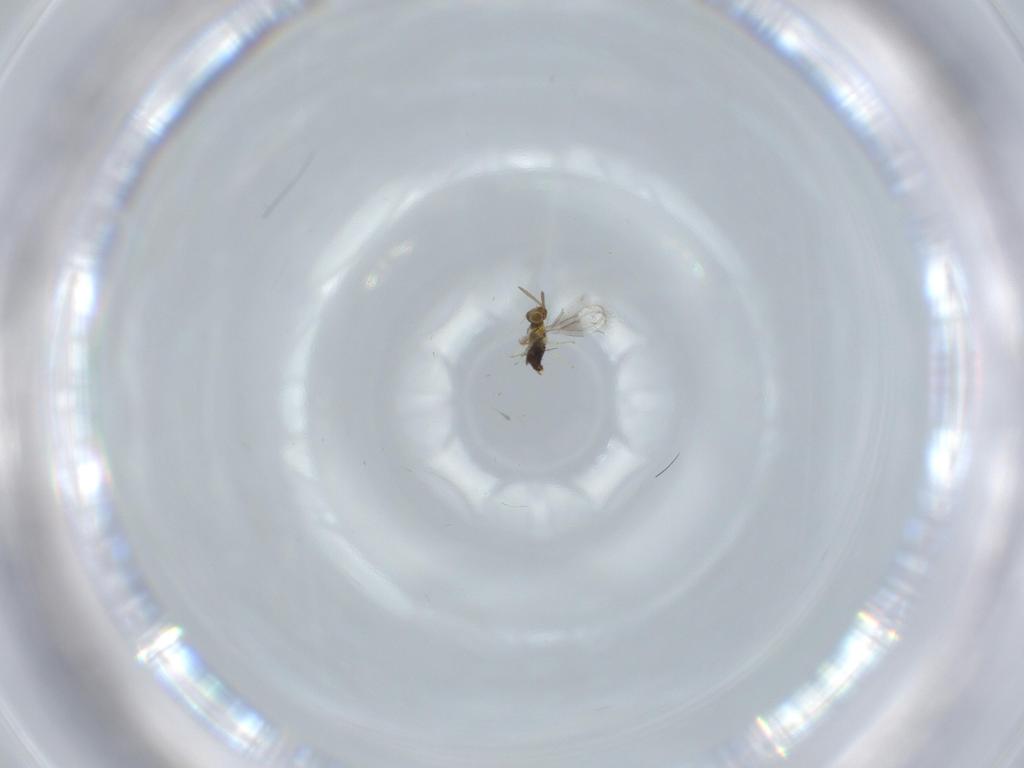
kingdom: Animalia
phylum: Arthropoda
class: Insecta
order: Hymenoptera
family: Aphelinidae
